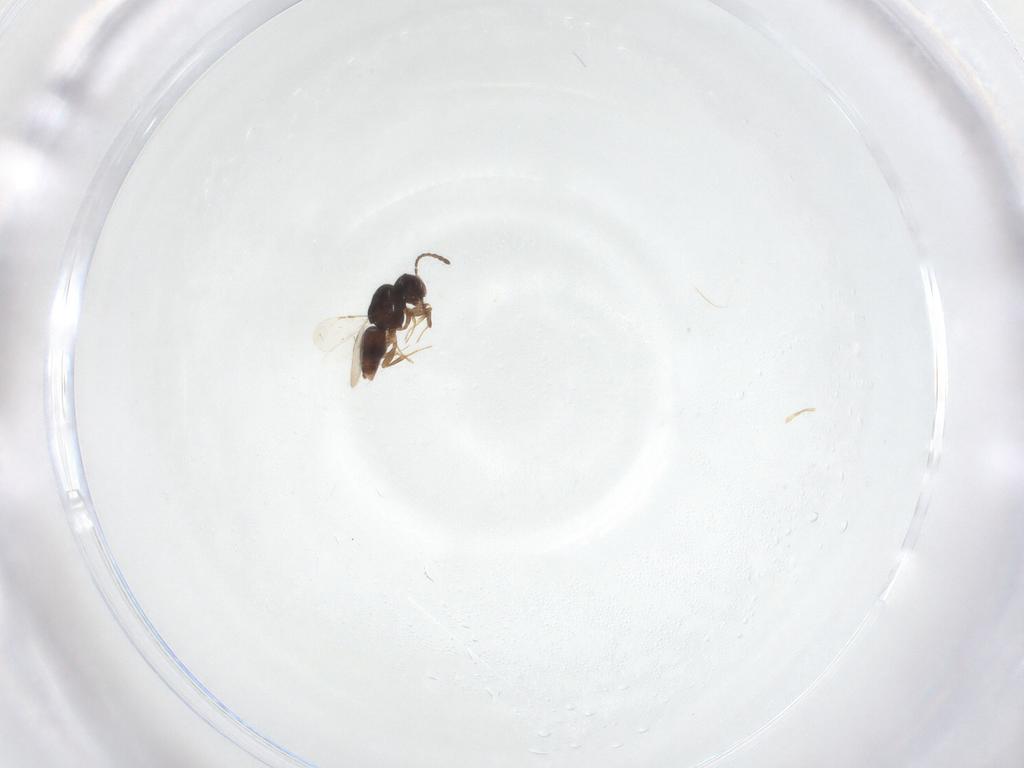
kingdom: Animalia
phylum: Arthropoda
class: Insecta
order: Hymenoptera
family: Ceraphronidae
